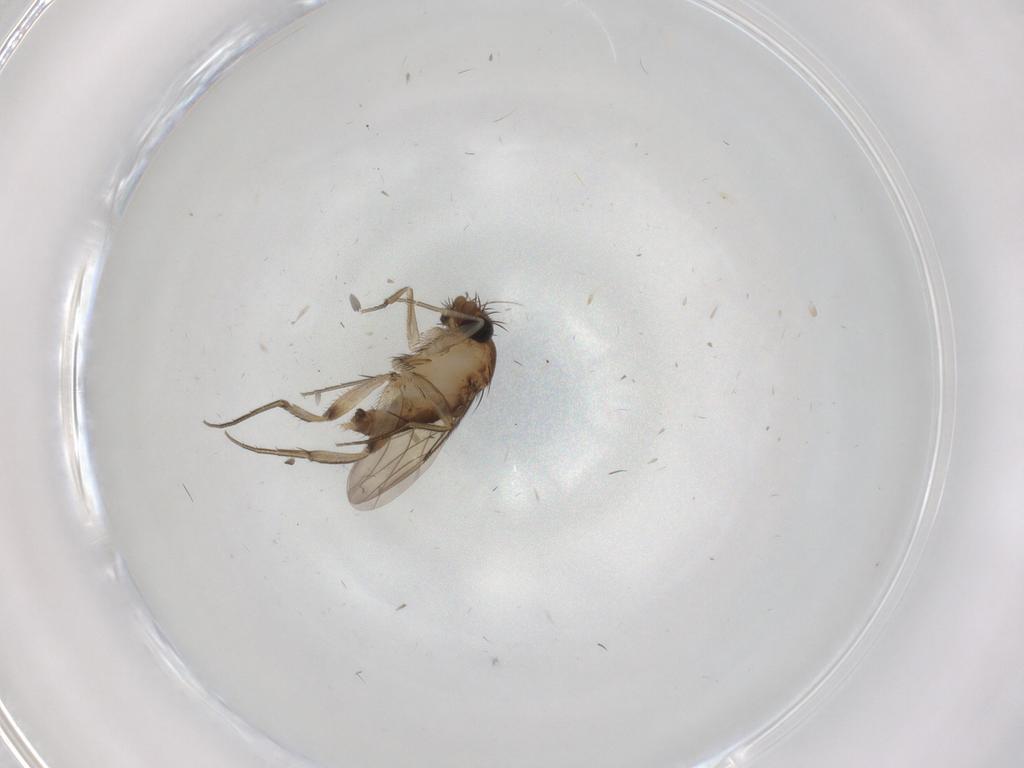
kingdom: Animalia
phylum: Arthropoda
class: Insecta
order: Diptera
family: Phoridae
